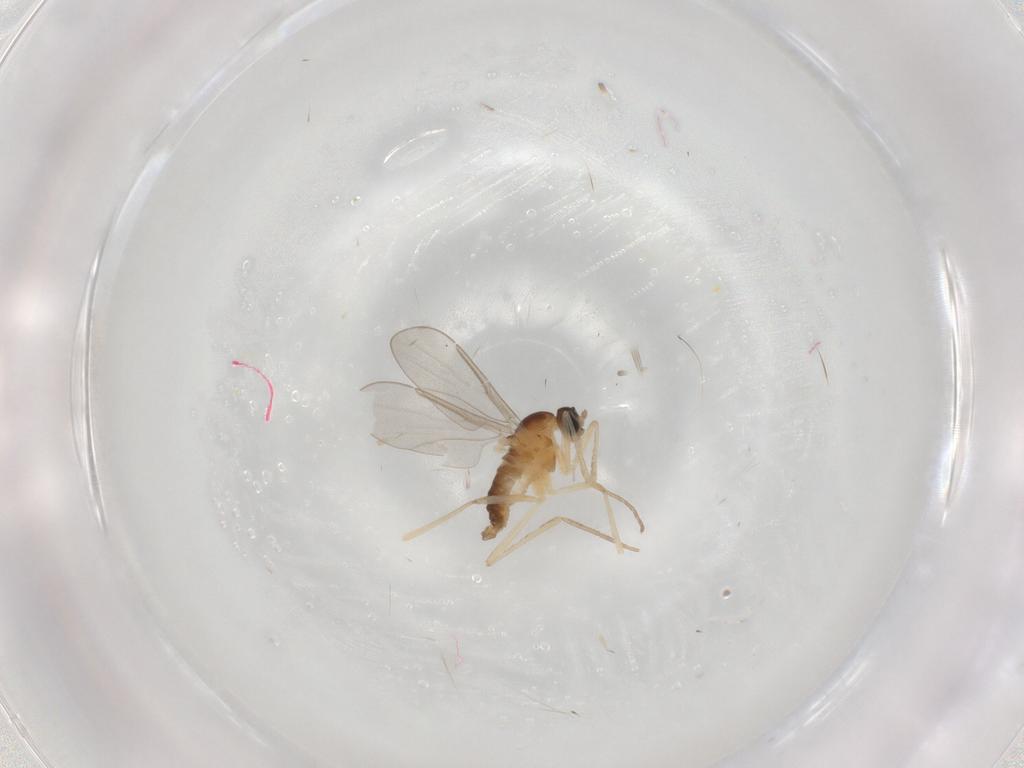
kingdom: Animalia
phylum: Arthropoda
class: Insecta
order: Diptera
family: Cecidomyiidae
